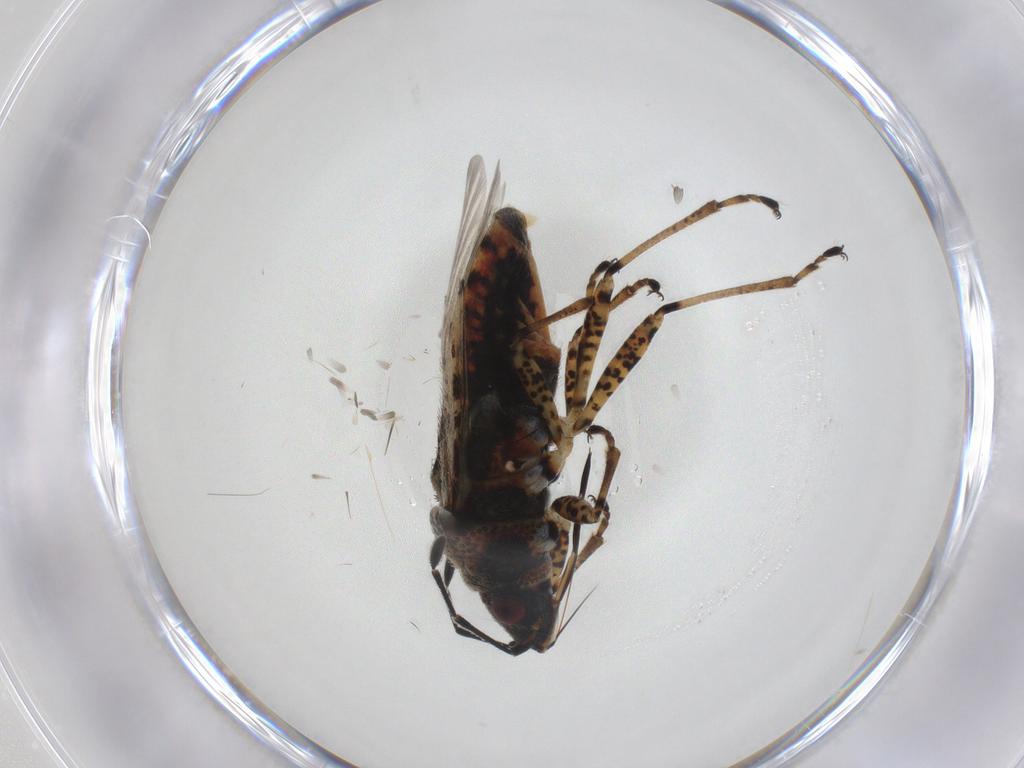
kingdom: Animalia
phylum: Arthropoda
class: Insecta
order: Hemiptera
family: Lygaeidae
